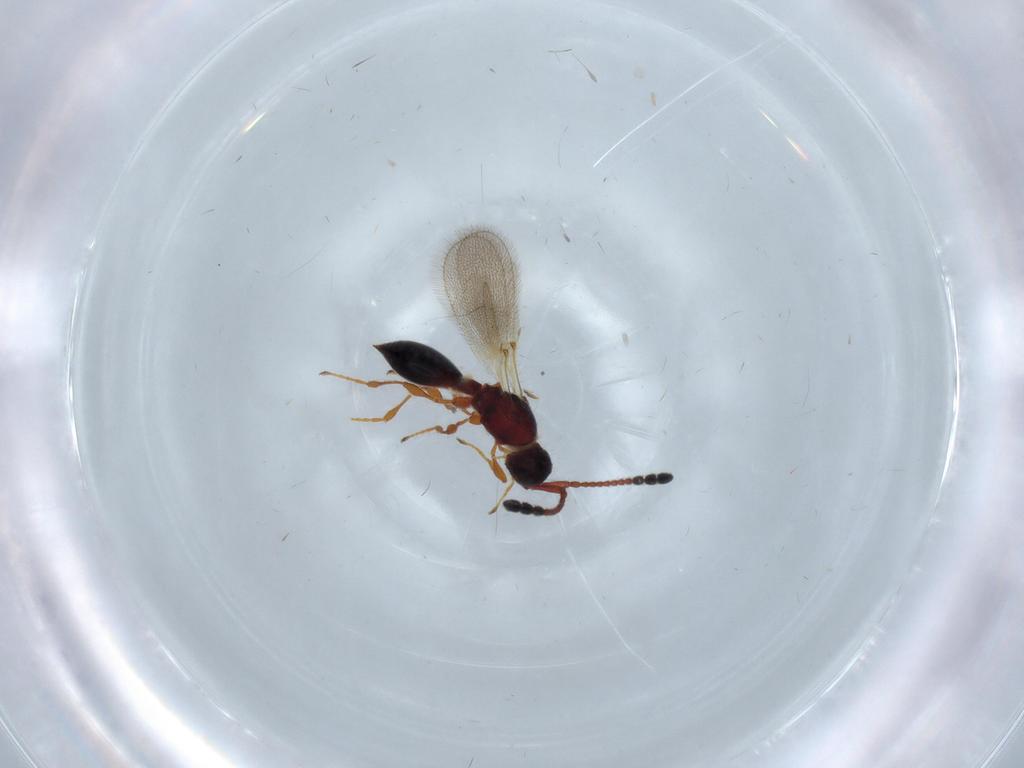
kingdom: Animalia
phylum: Arthropoda
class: Insecta
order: Hymenoptera
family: Diapriidae
